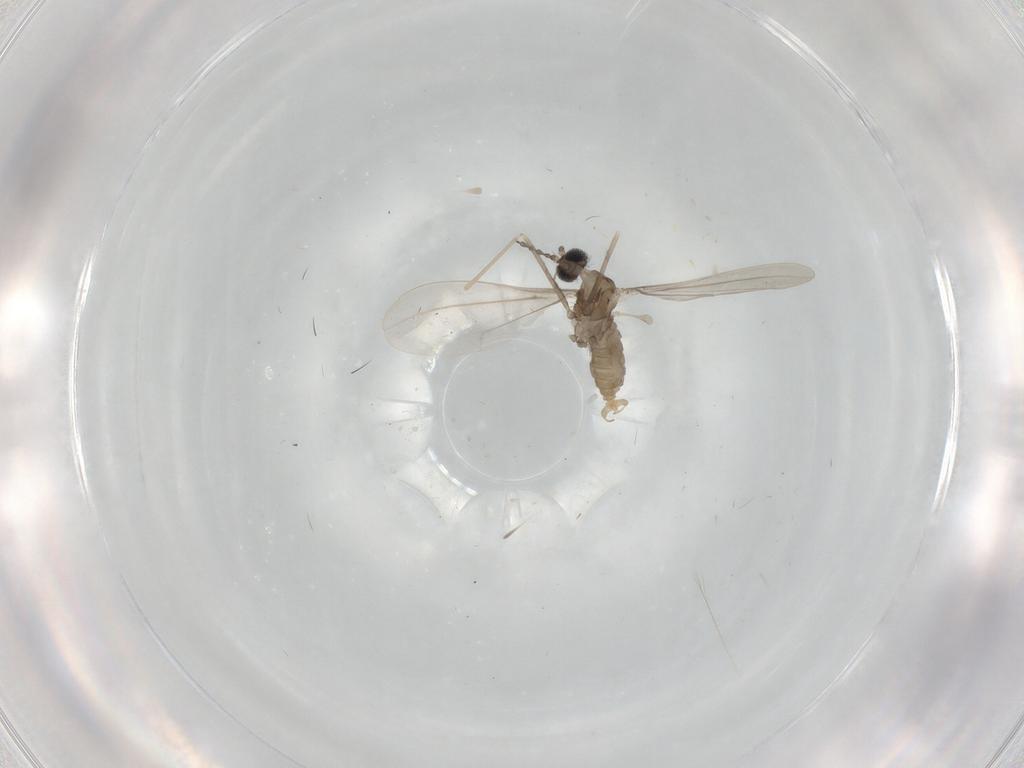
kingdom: Animalia
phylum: Arthropoda
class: Insecta
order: Diptera
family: Cecidomyiidae
